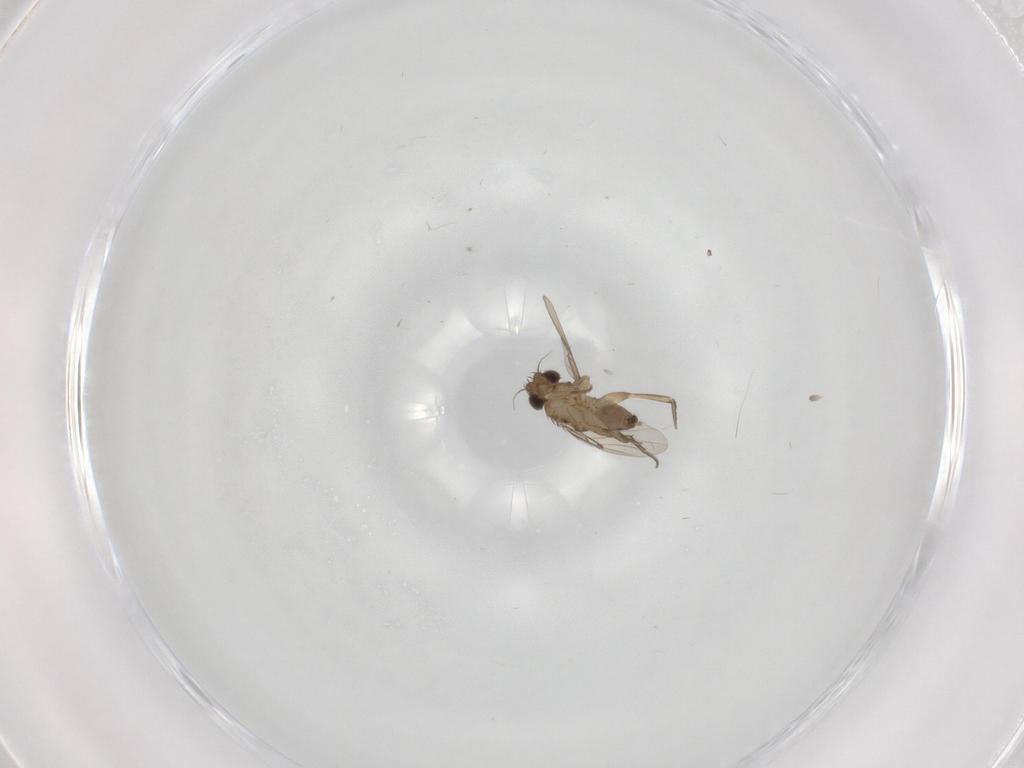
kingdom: Animalia
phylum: Arthropoda
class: Insecta
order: Diptera
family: Phoridae
